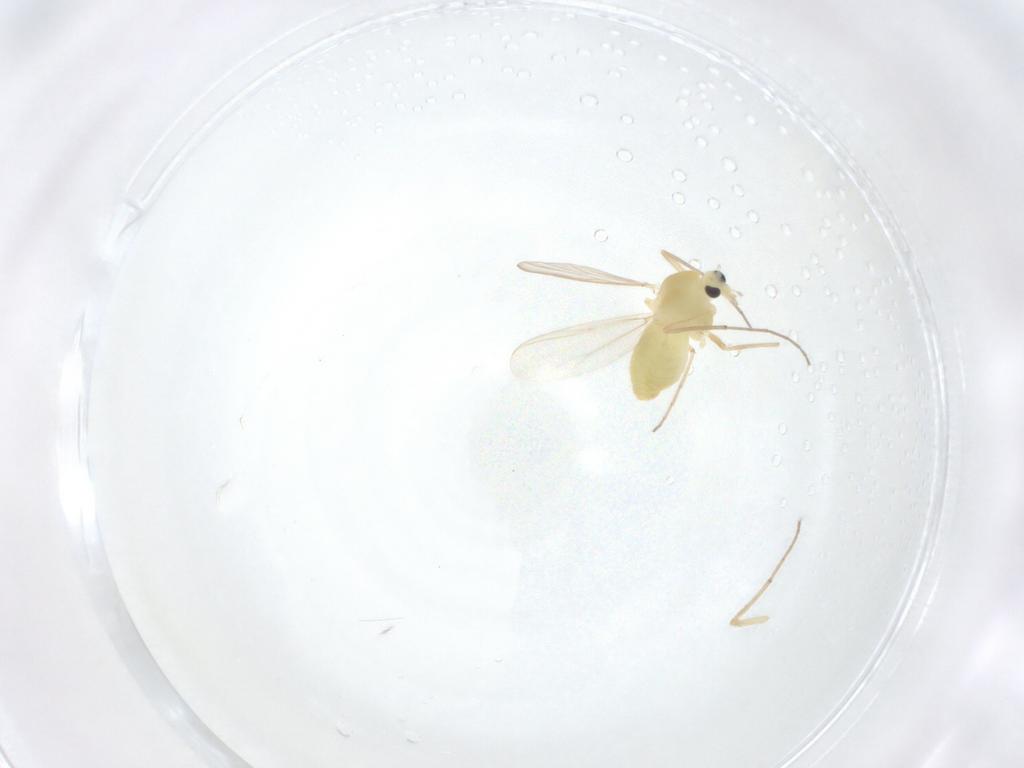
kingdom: Animalia
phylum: Arthropoda
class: Insecta
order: Diptera
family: Chironomidae
